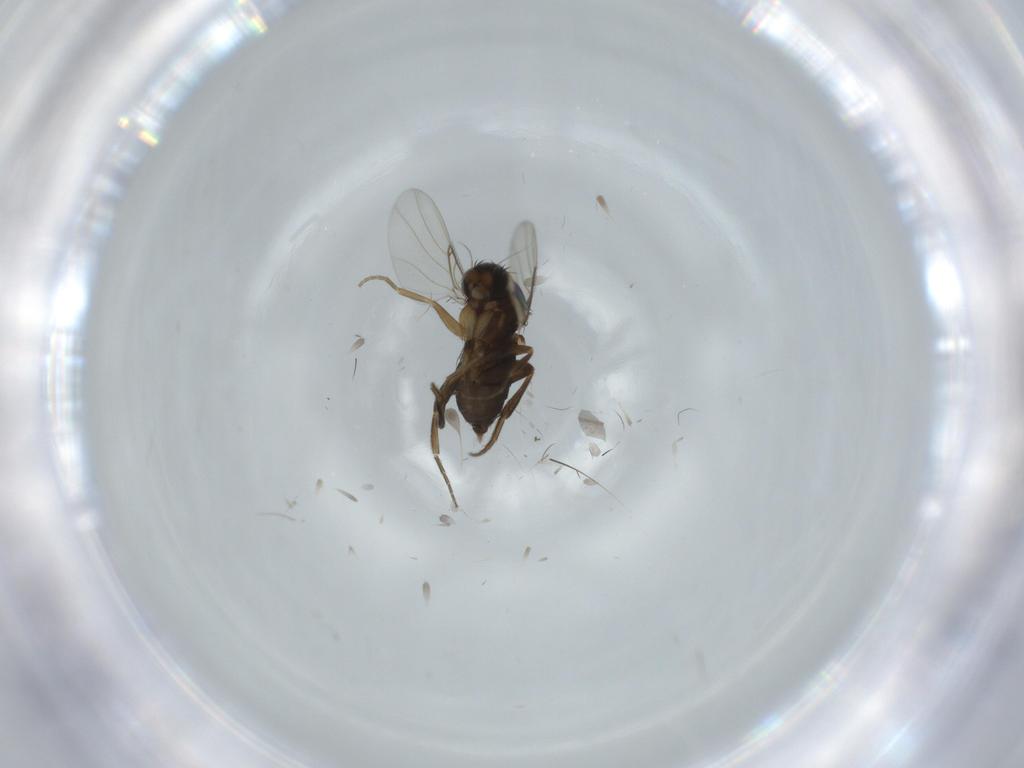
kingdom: Animalia
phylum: Arthropoda
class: Insecta
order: Diptera
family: Phoridae
